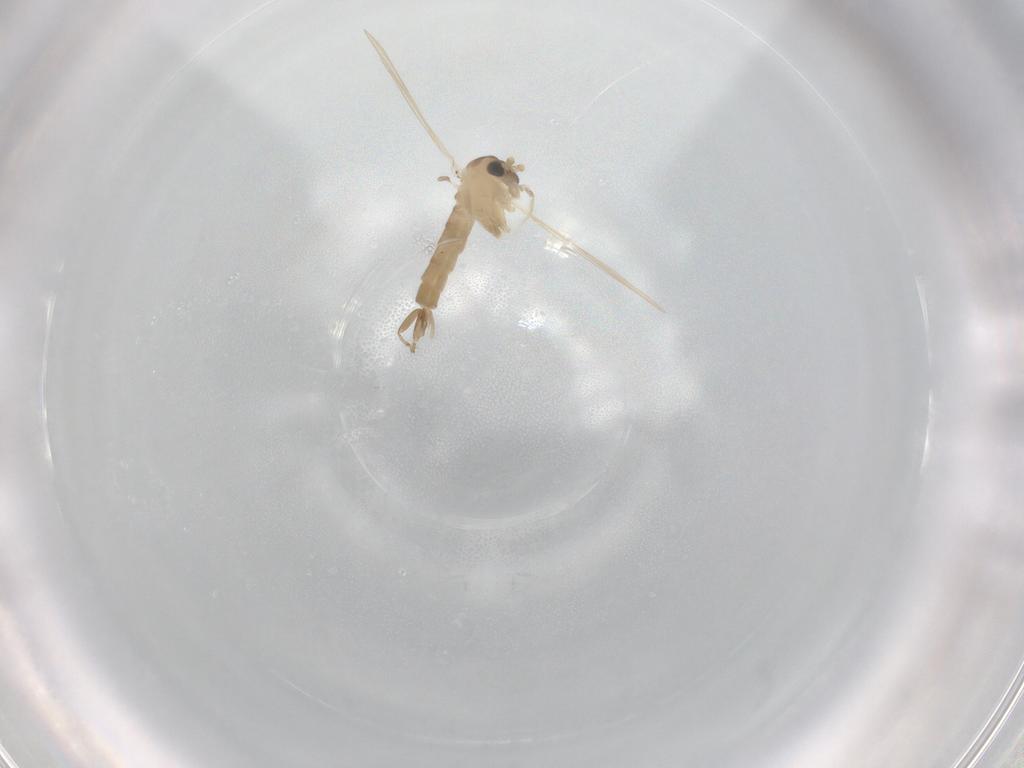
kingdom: Animalia
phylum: Arthropoda
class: Insecta
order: Diptera
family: Psychodidae
